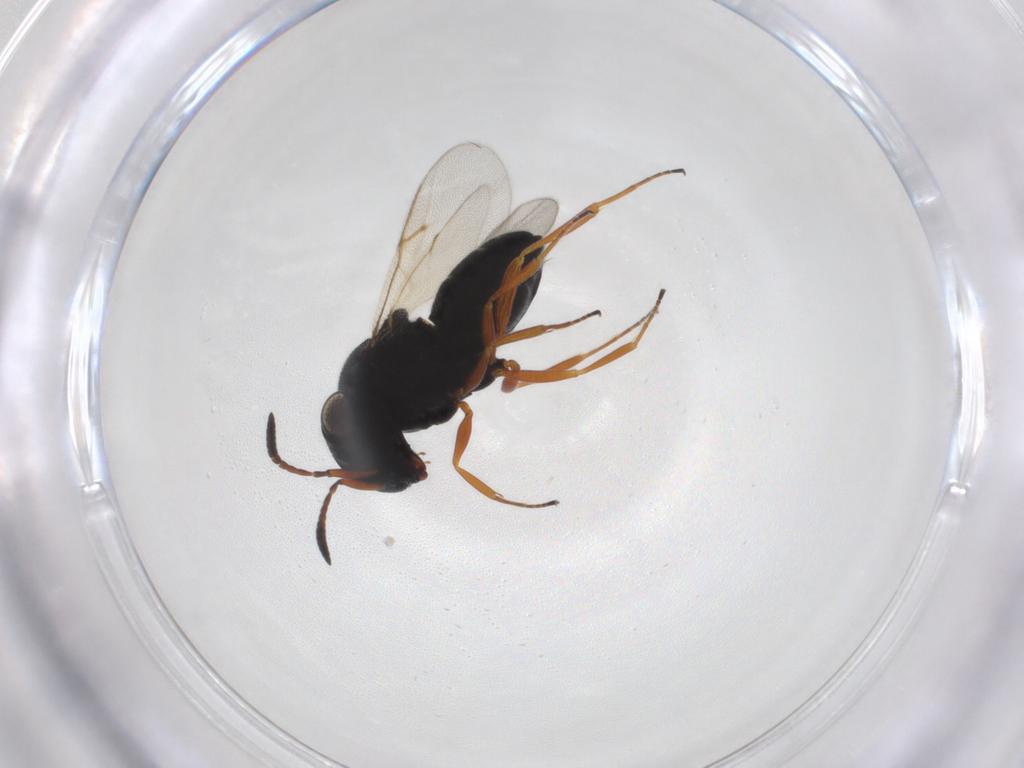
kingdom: Animalia
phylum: Arthropoda
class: Insecta
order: Hymenoptera
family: Scelionidae
